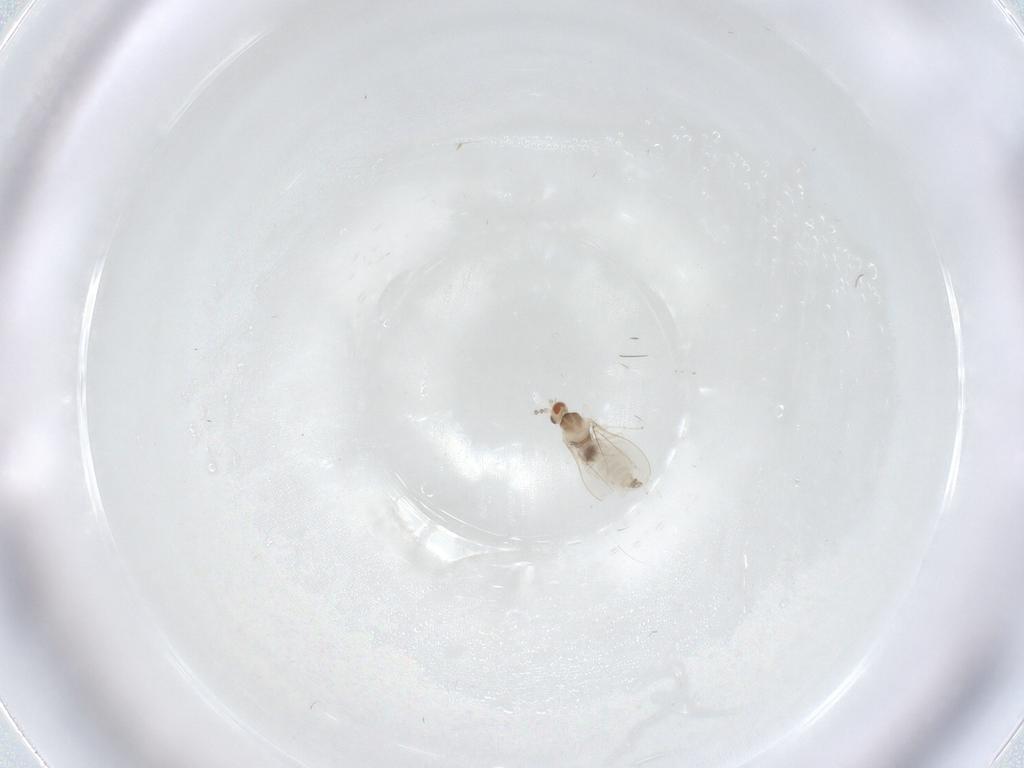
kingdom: Animalia
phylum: Arthropoda
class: Insecta
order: Diptera
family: Cecidomyiidae
